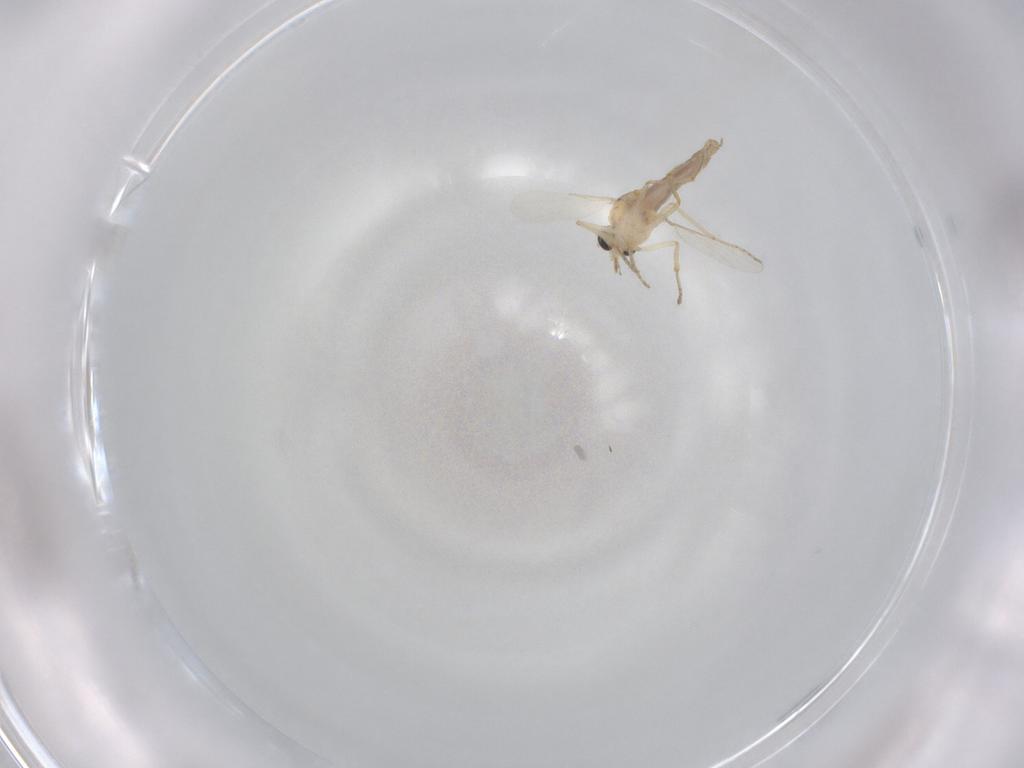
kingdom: Animalia
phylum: Arthropoda
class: Insecta
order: Diptera
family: Ceratopogonidae
